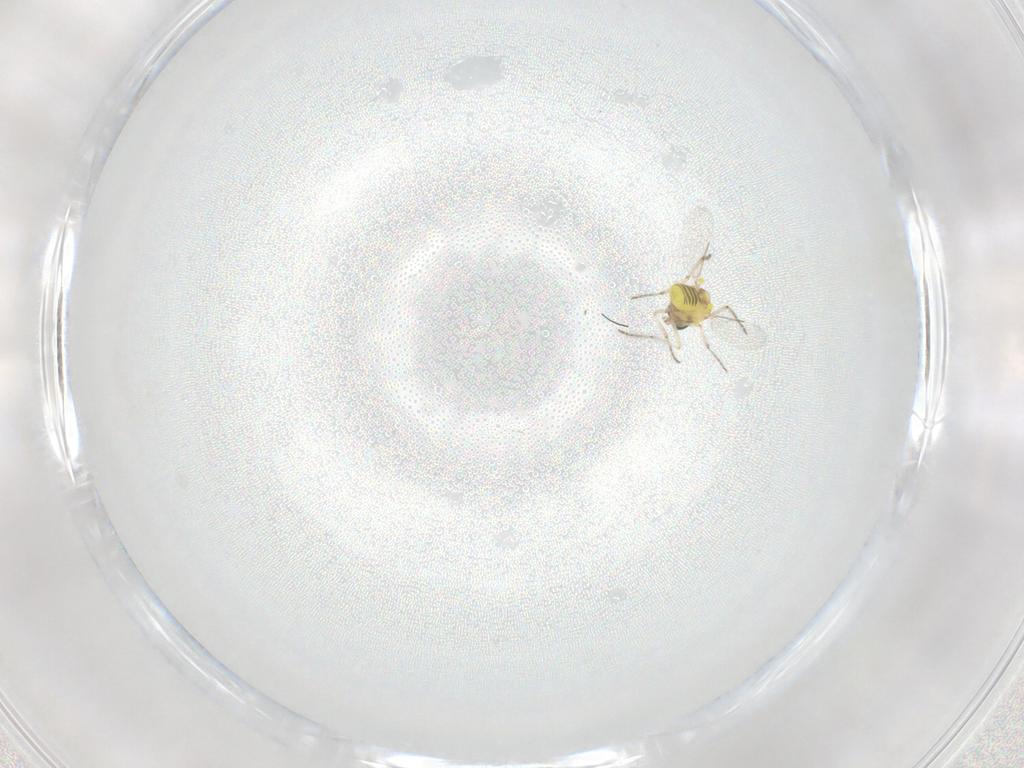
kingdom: Animalia
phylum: Arthropoda
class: Insecta
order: Diptera
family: Ceratopogonidae
